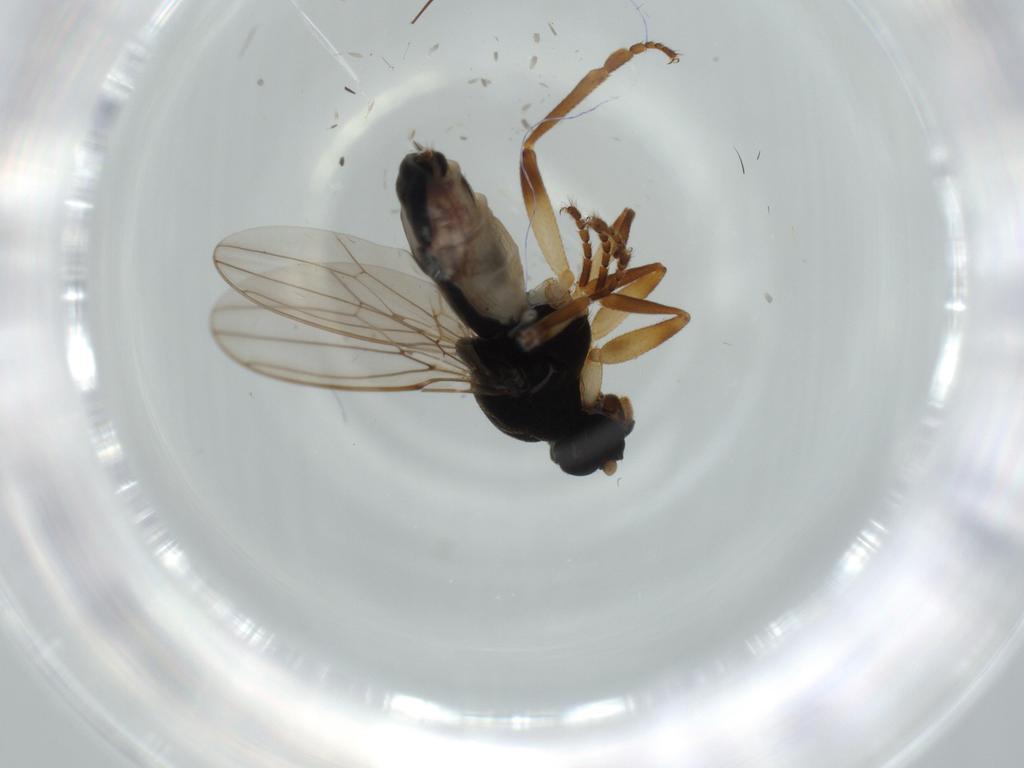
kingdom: Animalia
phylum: Arthropoda
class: Insecta
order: Diptera
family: Sphaeroceridae
